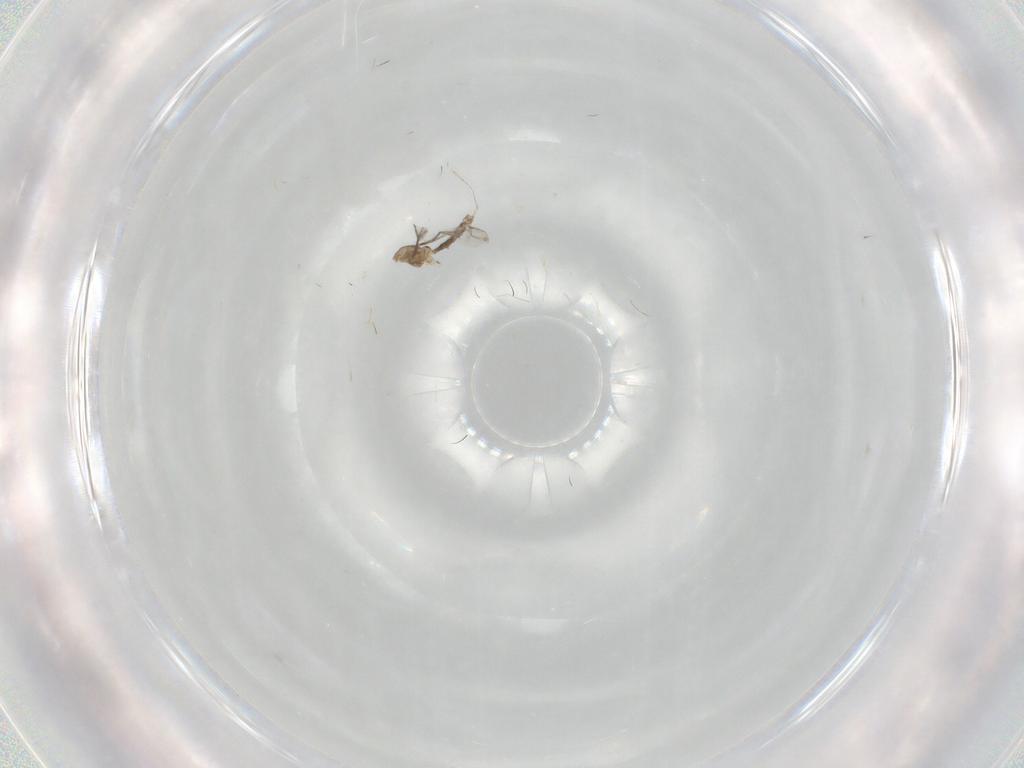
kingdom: Animalia
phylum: Arthropoda
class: Insecta
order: Diptera
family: Cecidomyiidae
